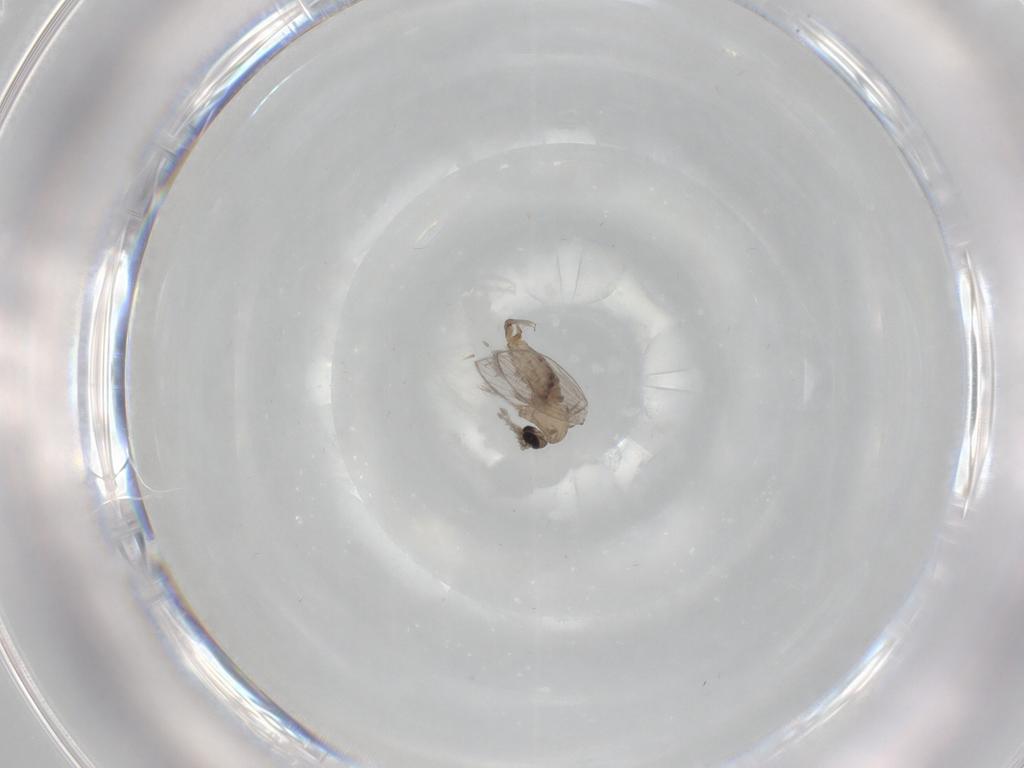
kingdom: Animalia
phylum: Arthropoda
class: Insecta
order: Diptera
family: Psychodidae
